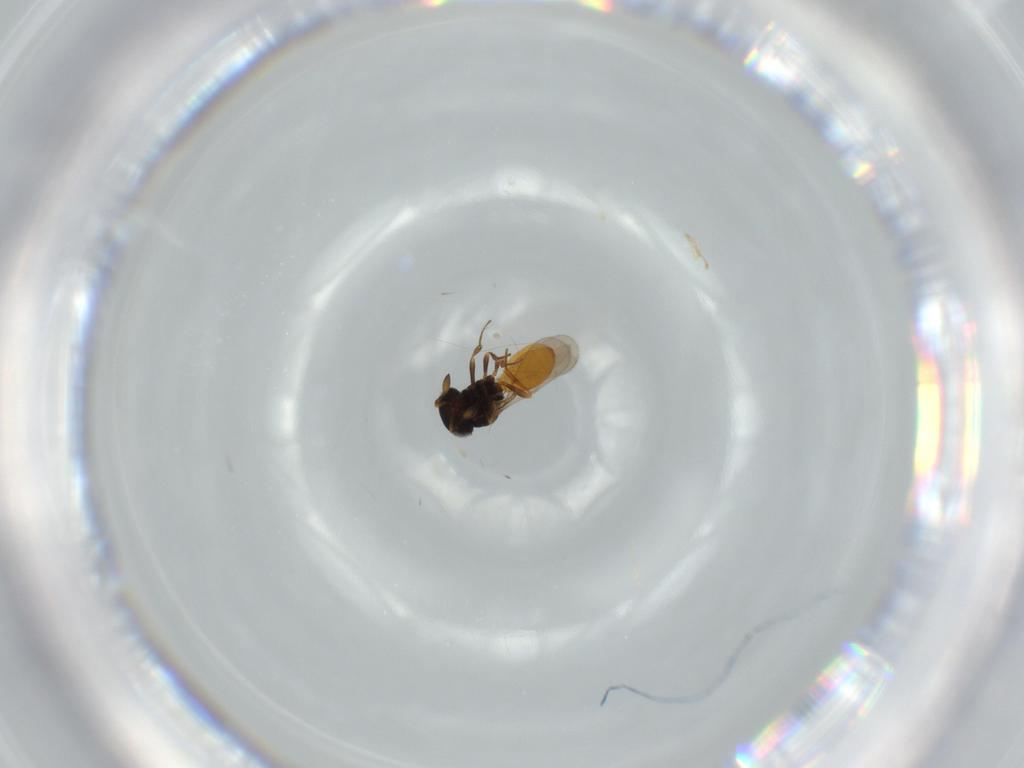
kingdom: Animalia
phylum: Arthropoda
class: Insecta
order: Hymenoptera
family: Scelionidae
